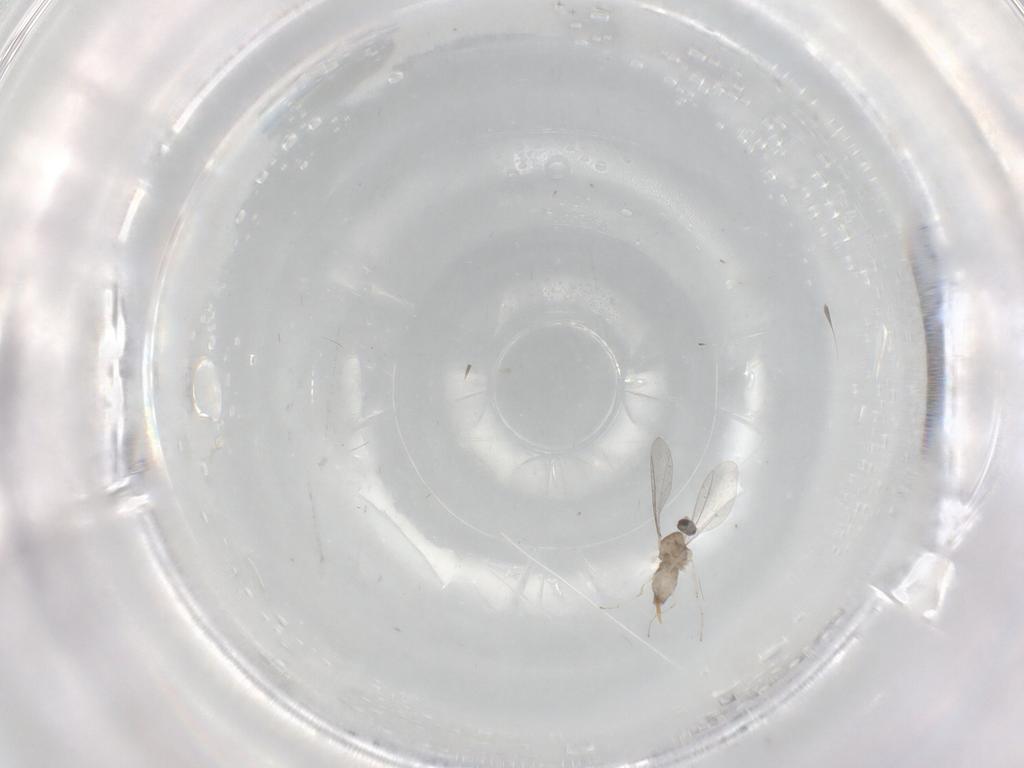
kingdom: Animalia
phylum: Arthropoda
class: Insecta
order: Diptera
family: Cecidomyiidae
